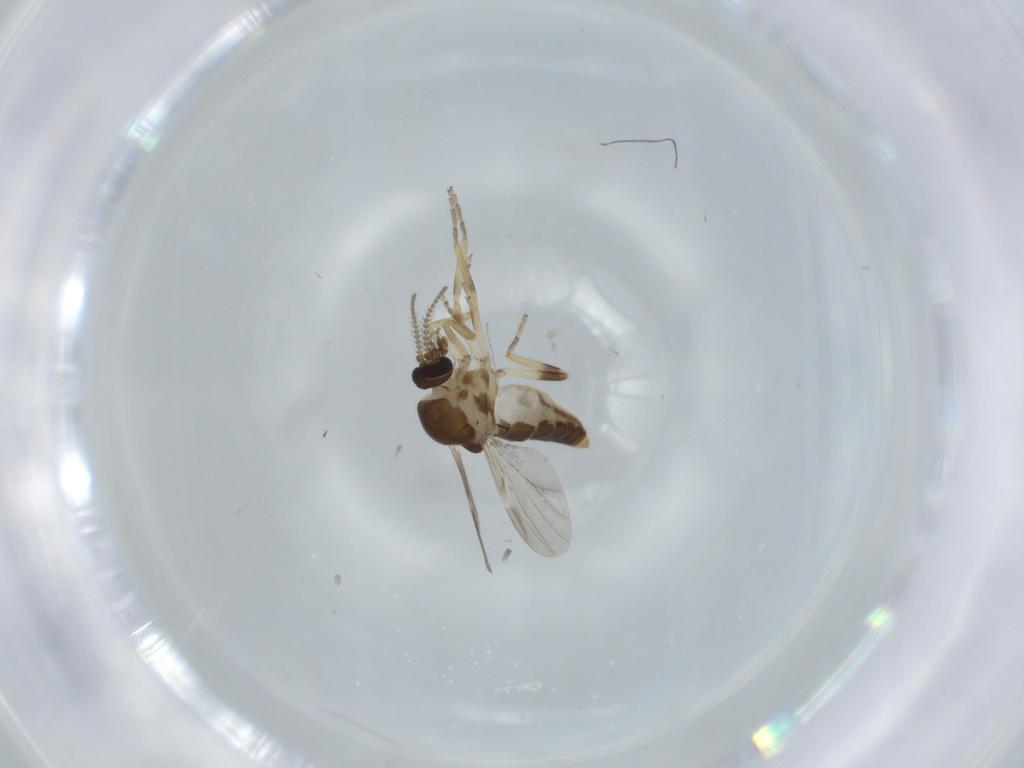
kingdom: Animalia
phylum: Arthropoda
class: Insecta
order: Diptera
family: Ceratopogonidae
